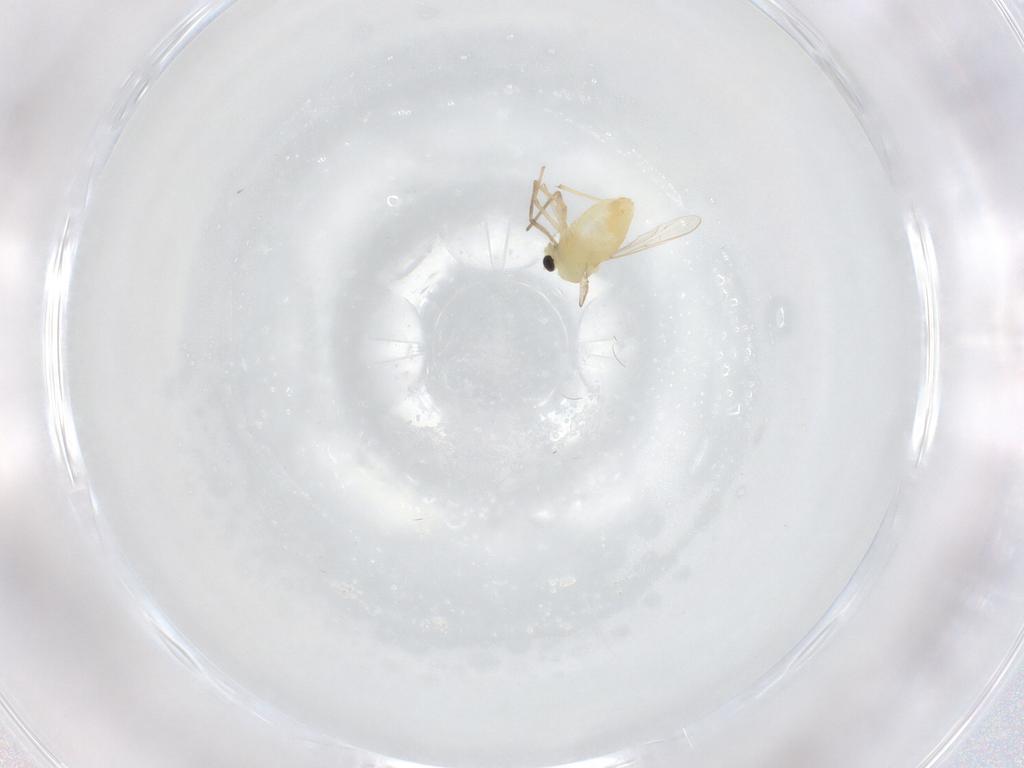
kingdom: Animalia
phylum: Arthropoda
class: Insecta
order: Diptera
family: Chironomidae
